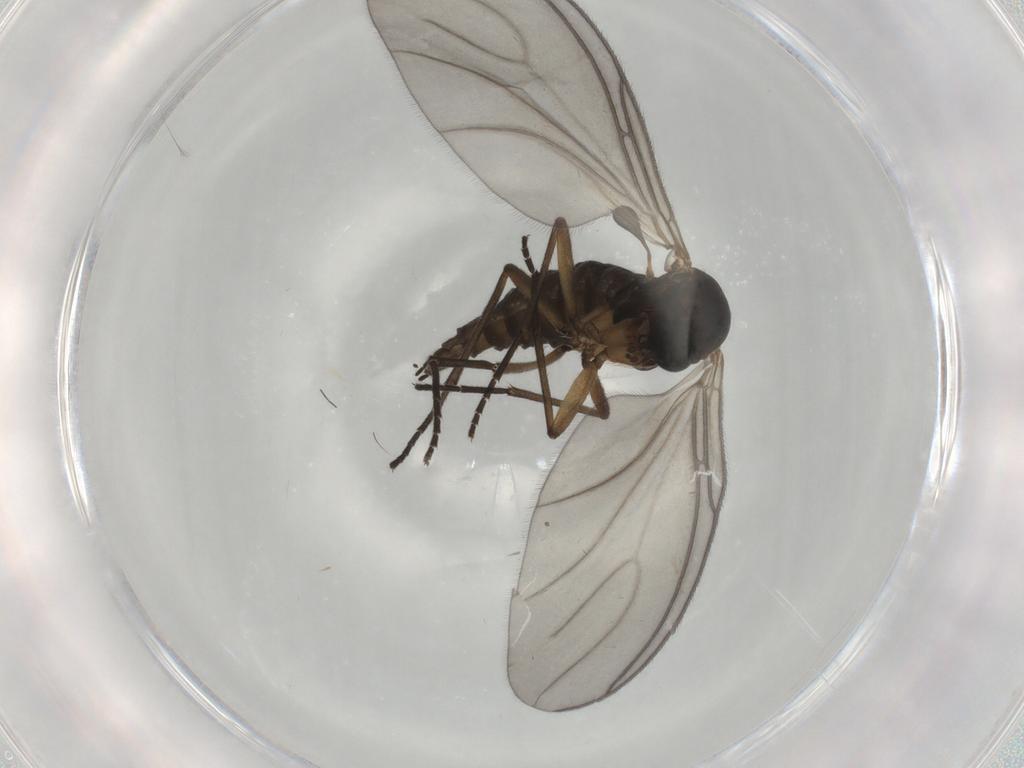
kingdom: Animalia
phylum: Arthropoda
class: Insecta
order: Diptera
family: Sciaridae
